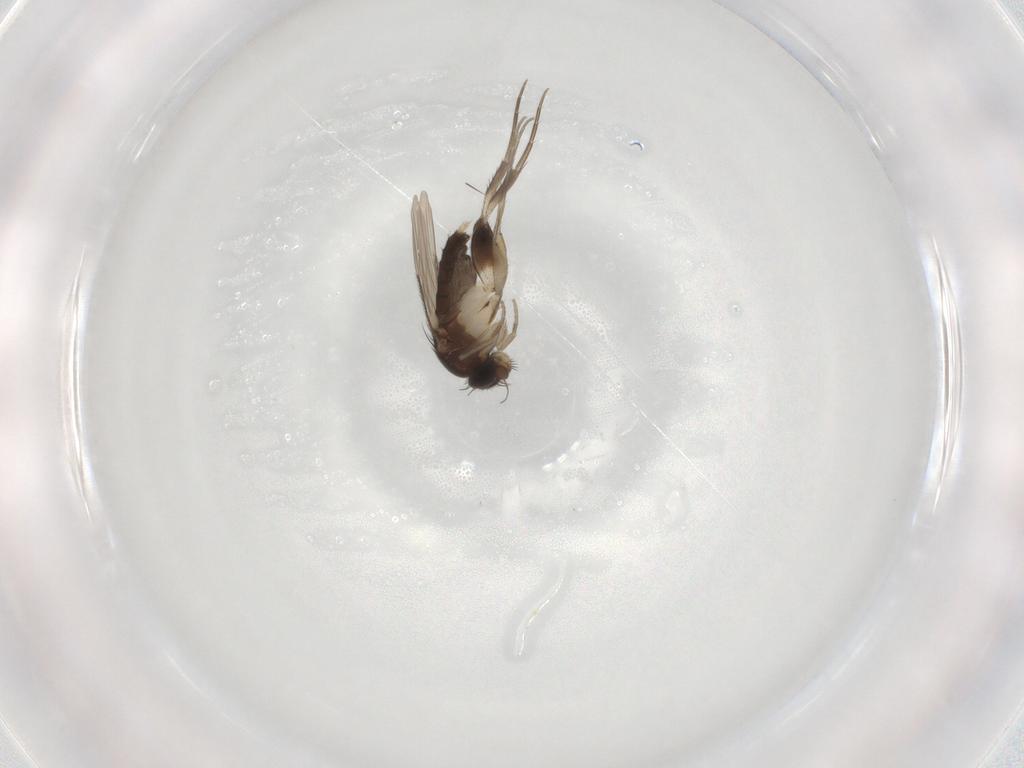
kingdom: Animalia
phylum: Arthropoda
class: Insecta
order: Diptera
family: Phoridae
